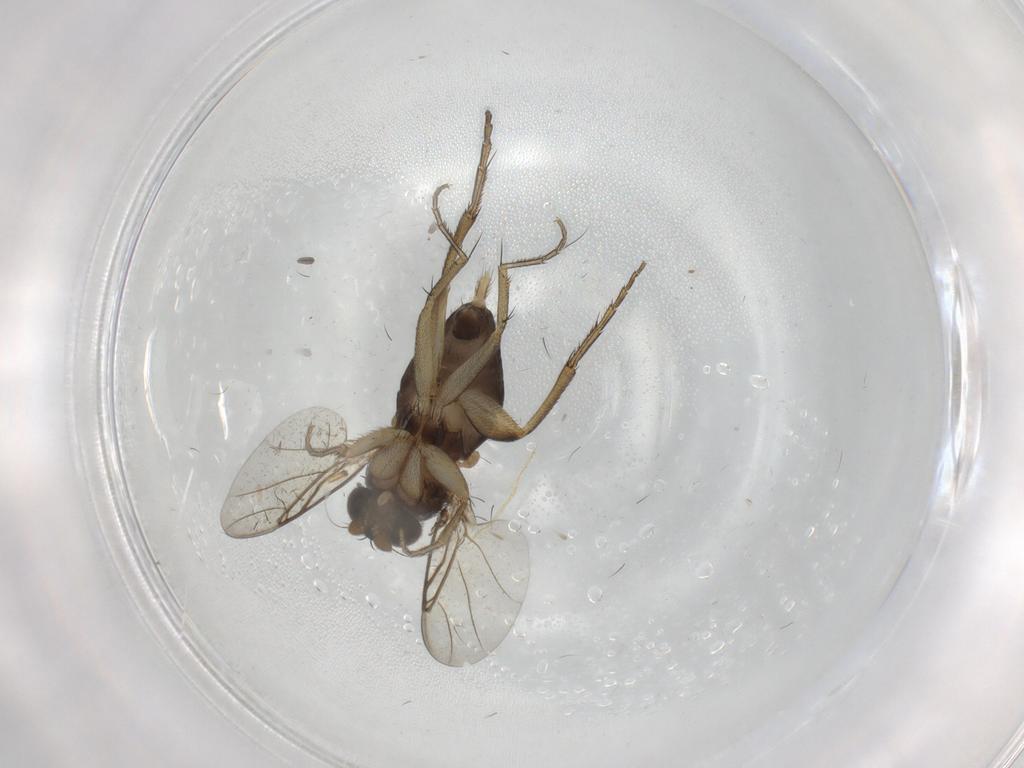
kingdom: Animalia
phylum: Arthropoda
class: Insecta
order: Diptera
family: Phoridae
